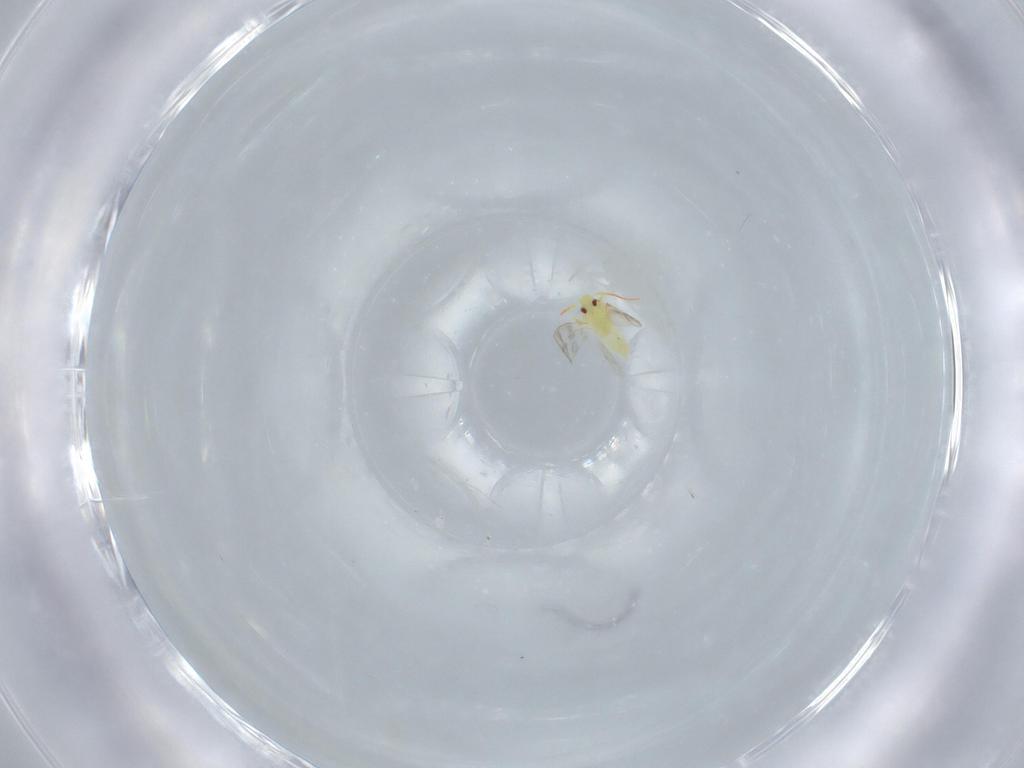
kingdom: Animalia
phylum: Arthropoda
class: Insecta
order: Hemiptera
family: Aleyrodidae
